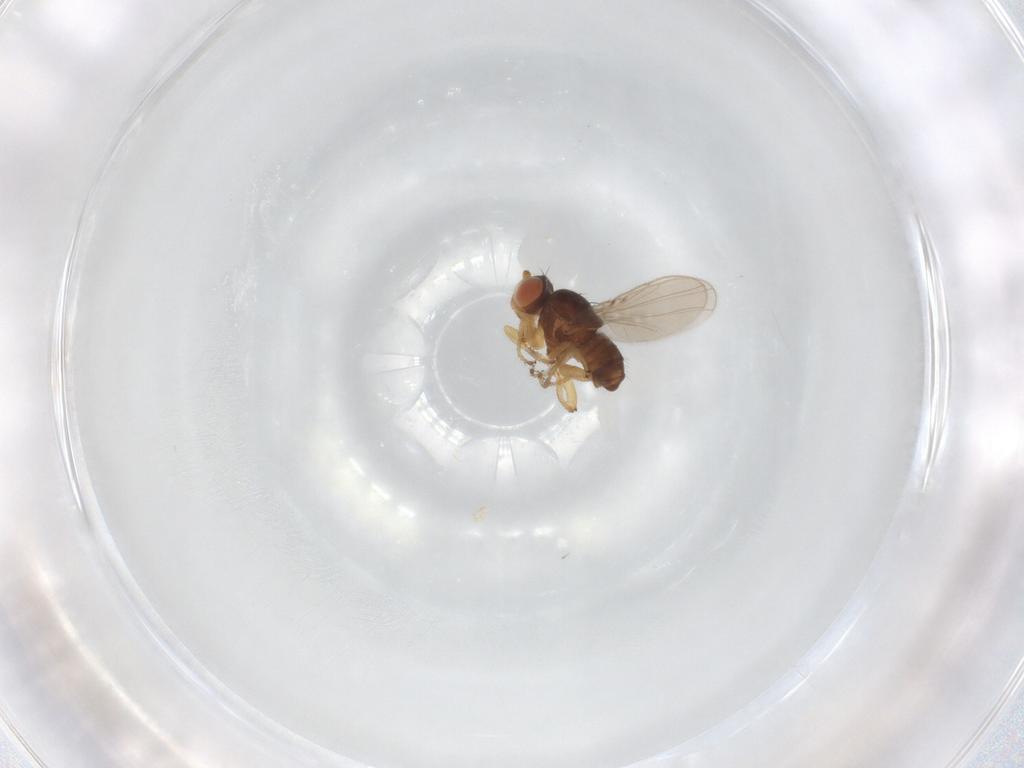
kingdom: Animalia
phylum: Arthropoda
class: Insecta
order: Diptera
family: Ephydridae
